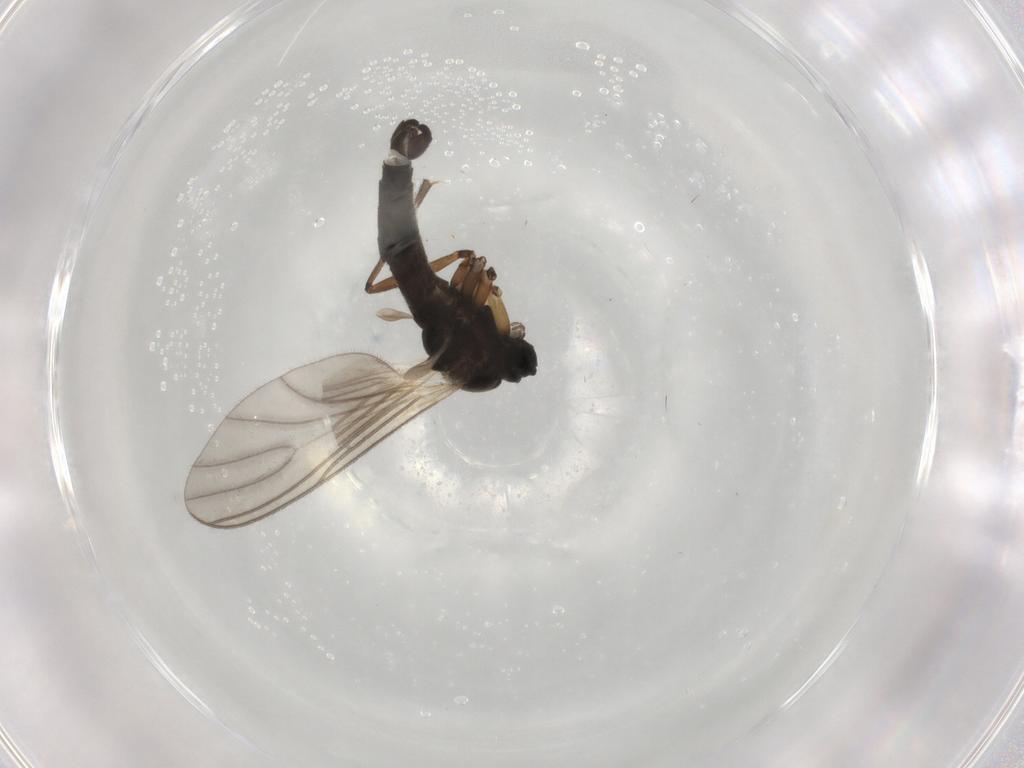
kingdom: Animalia
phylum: Arthropoda
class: Insecta
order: Diptera
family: Sciaridae
